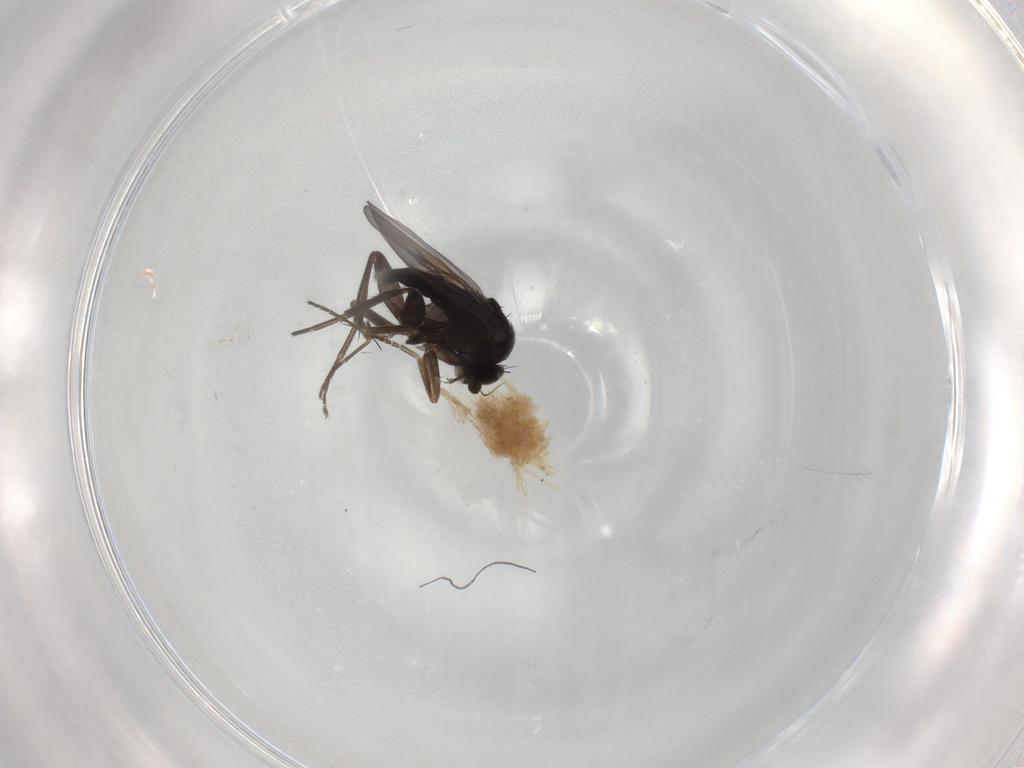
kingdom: Animalia
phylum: Arthropoda
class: Insecta
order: Diptera
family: Phoridae
